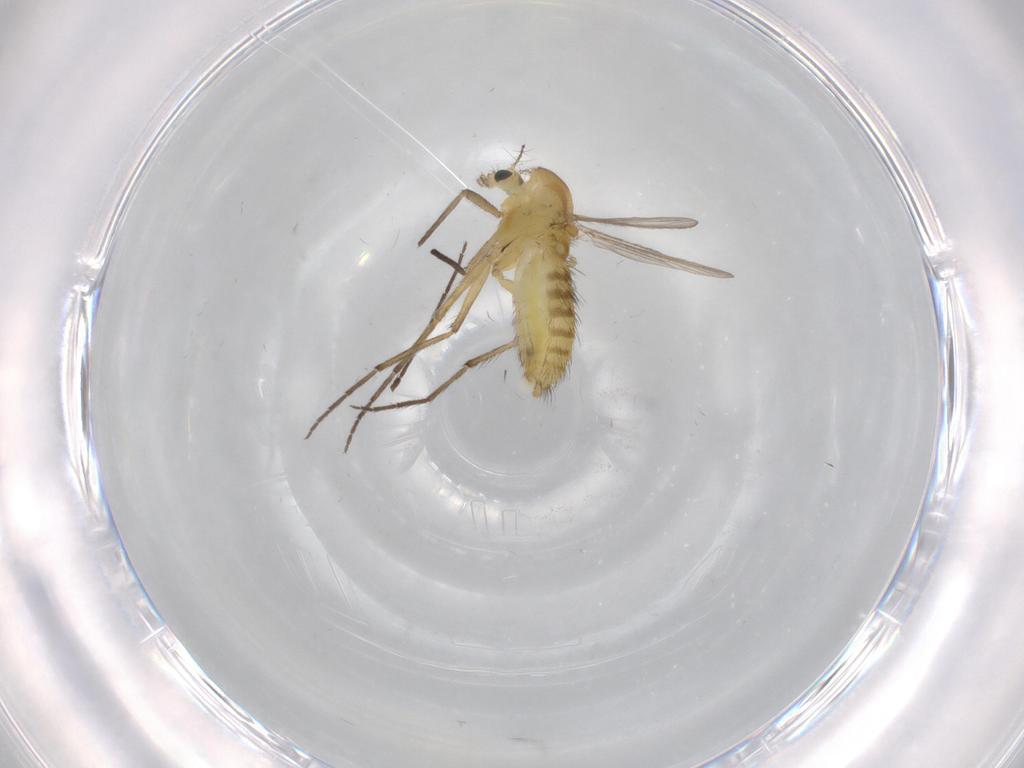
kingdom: Animalia
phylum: Arthropoda
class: Insecta
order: Diptera
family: Chironomidae
